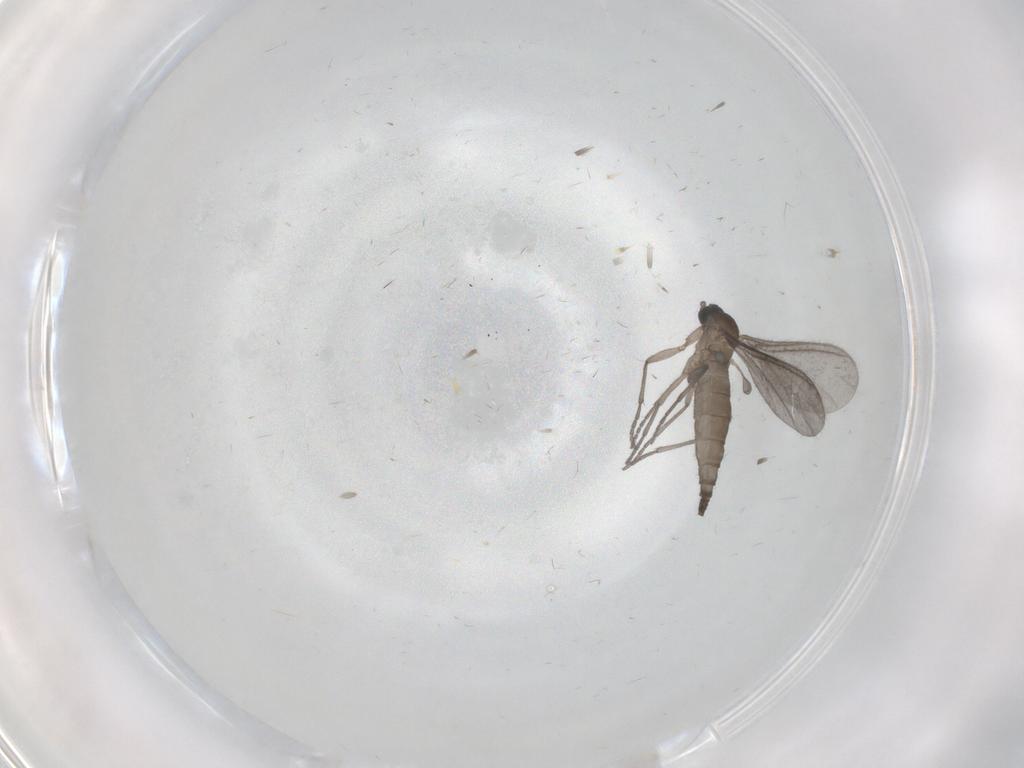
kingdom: Animalia
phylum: Arthropoda
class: Insecta
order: Diptera
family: Sciaridae
